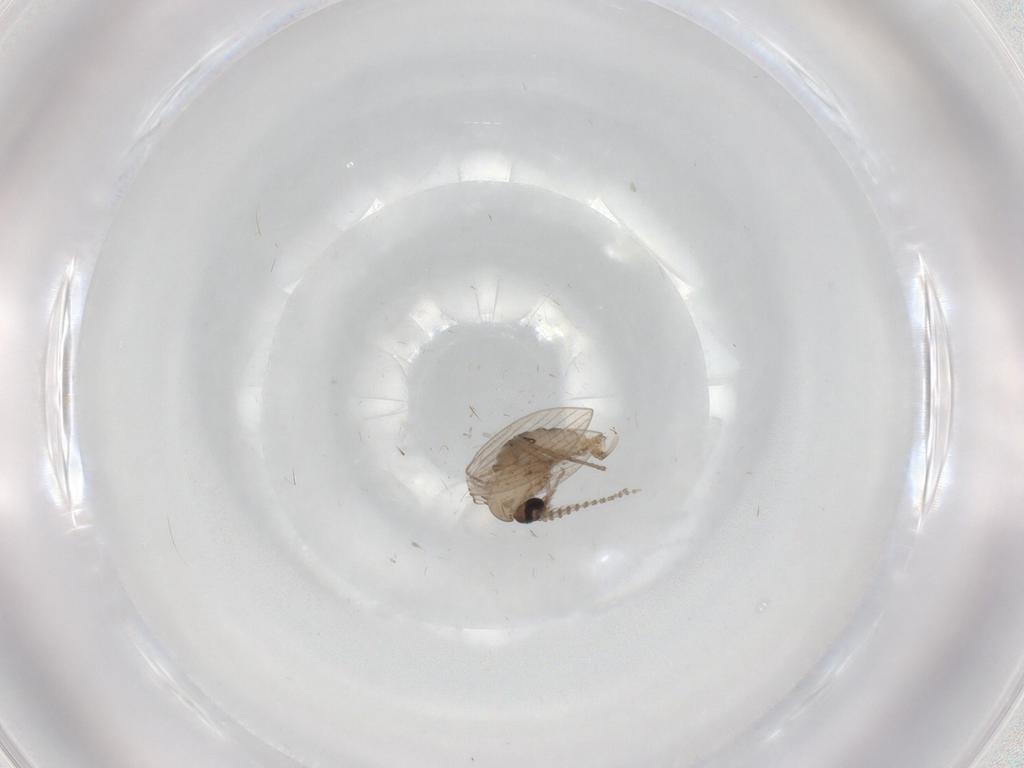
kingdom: Animalia
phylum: Arthropoda
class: Insecta
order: Diptera
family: Psychodidae
